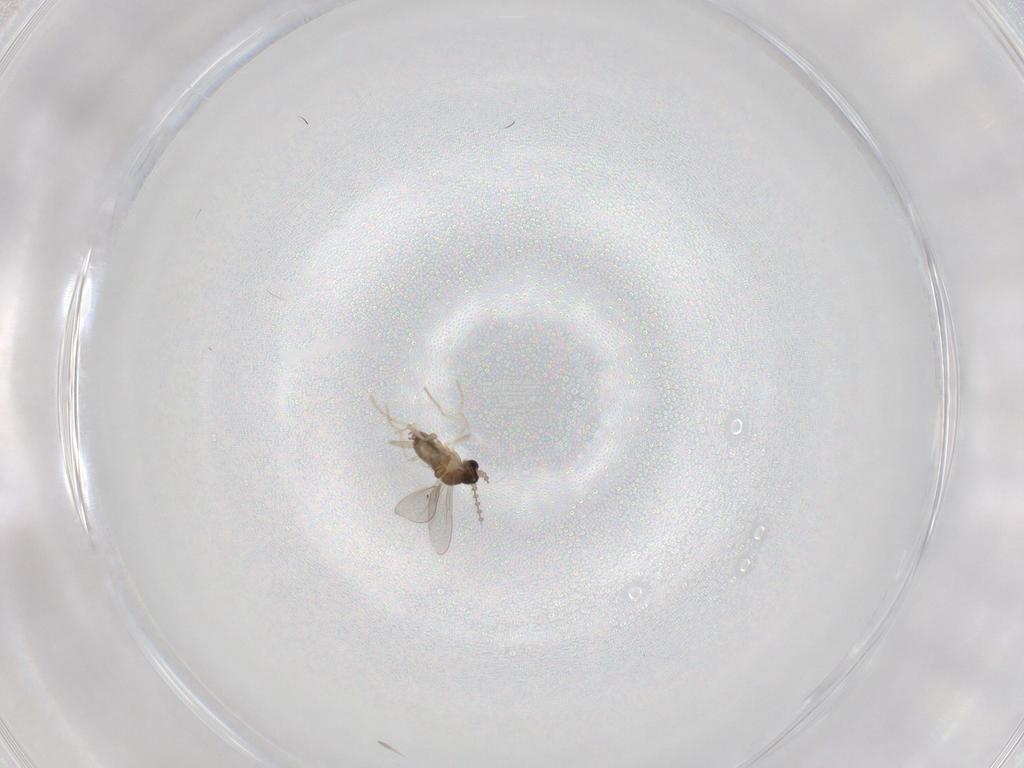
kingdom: Animalia
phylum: Arthropoda
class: Insecta
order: Diptera
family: Cecidomyiidae
